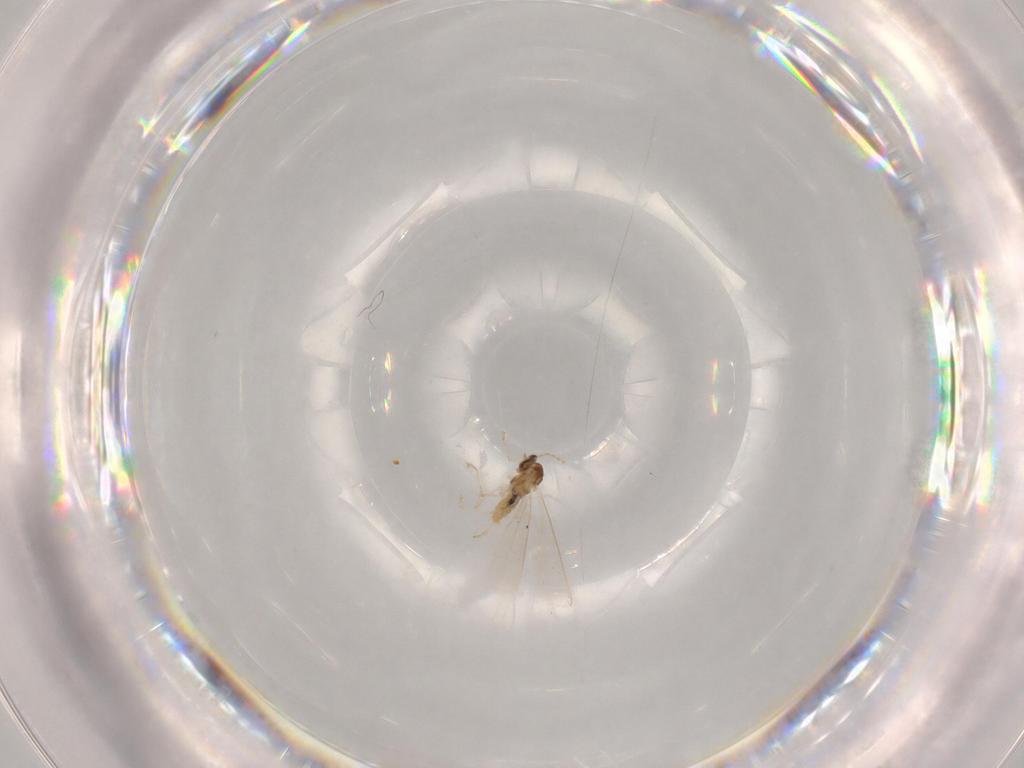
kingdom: Animalia
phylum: Arthropoda
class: Insecta
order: Diptera
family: Cecidomyiidae
